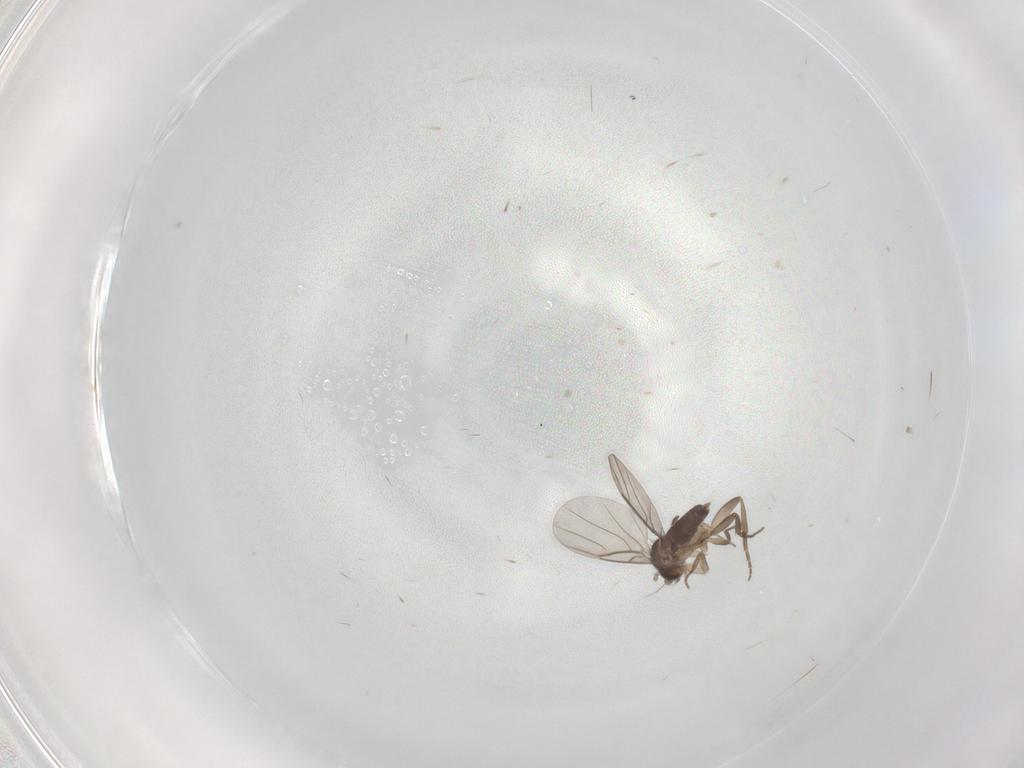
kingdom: Animalia
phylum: Arthropoda
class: Insecta
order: Diptera
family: Phoridae
